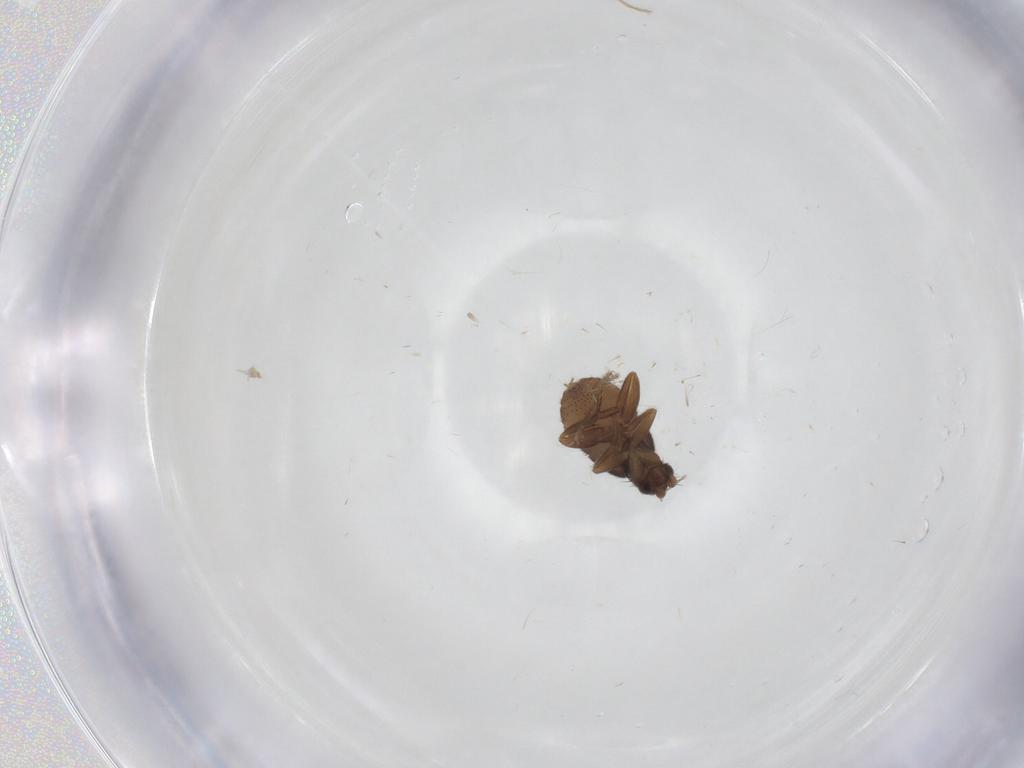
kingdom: Animalia
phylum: Arthropoda
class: Insecta
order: Diptera
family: Phoridae
